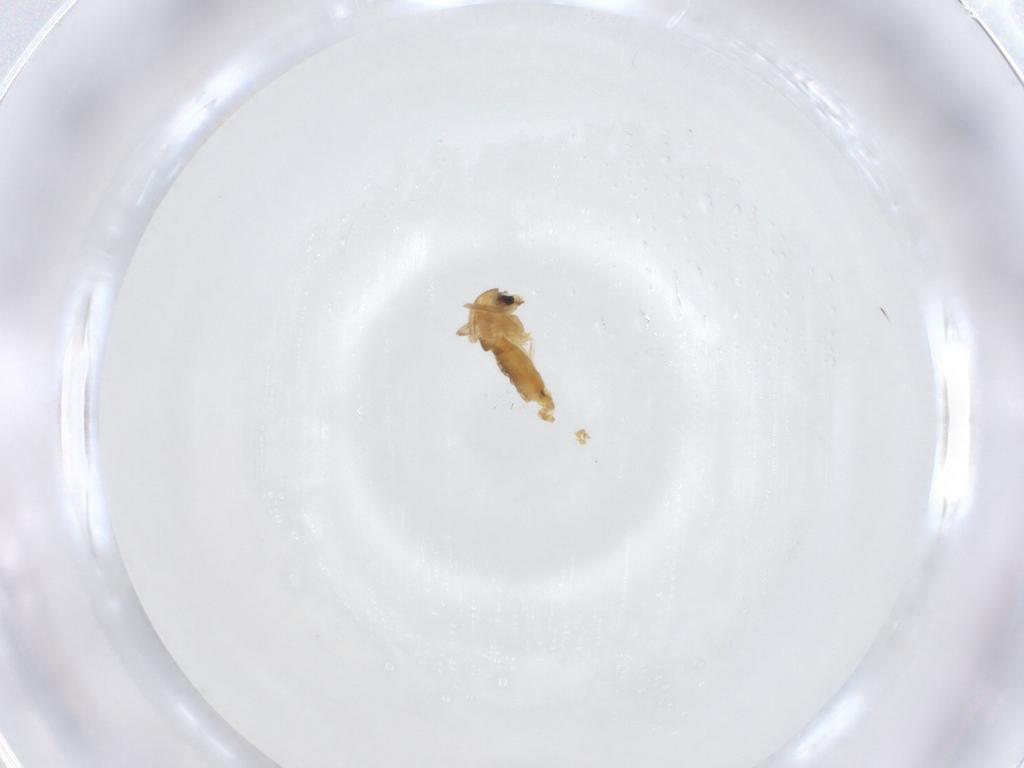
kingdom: Animalia
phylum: Arthropoda
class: Insecta
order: Diptera
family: Chironomidae
